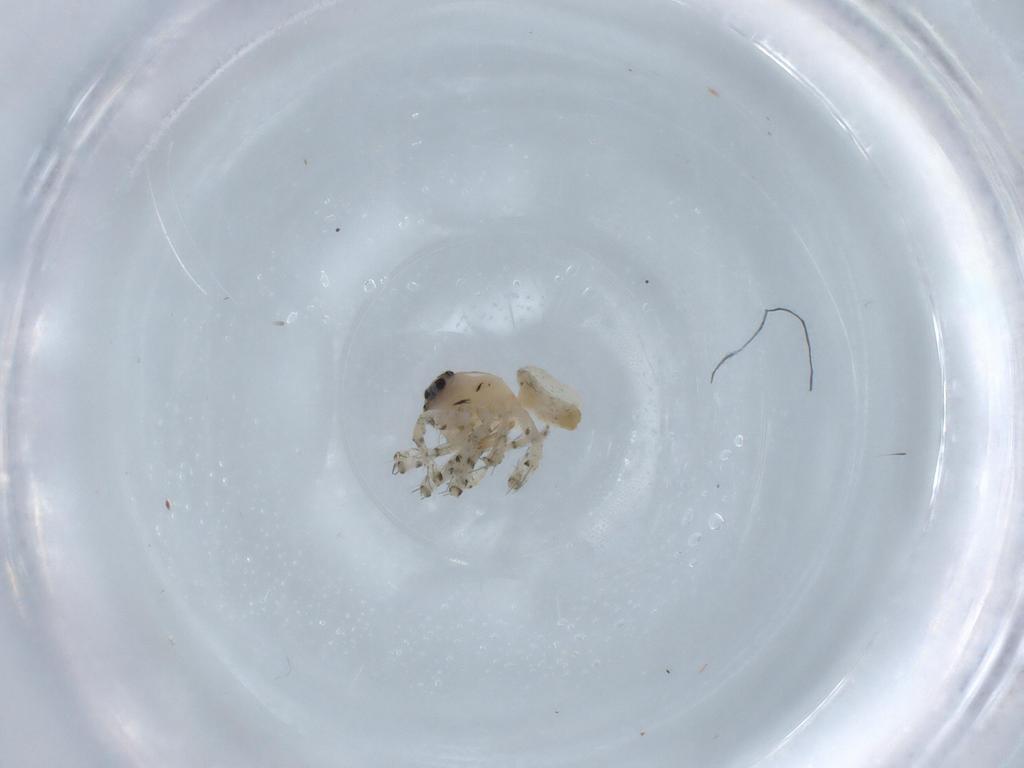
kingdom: Animalia
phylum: Arthropoda
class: Arachnida
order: Araneae
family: Oxyopidae
